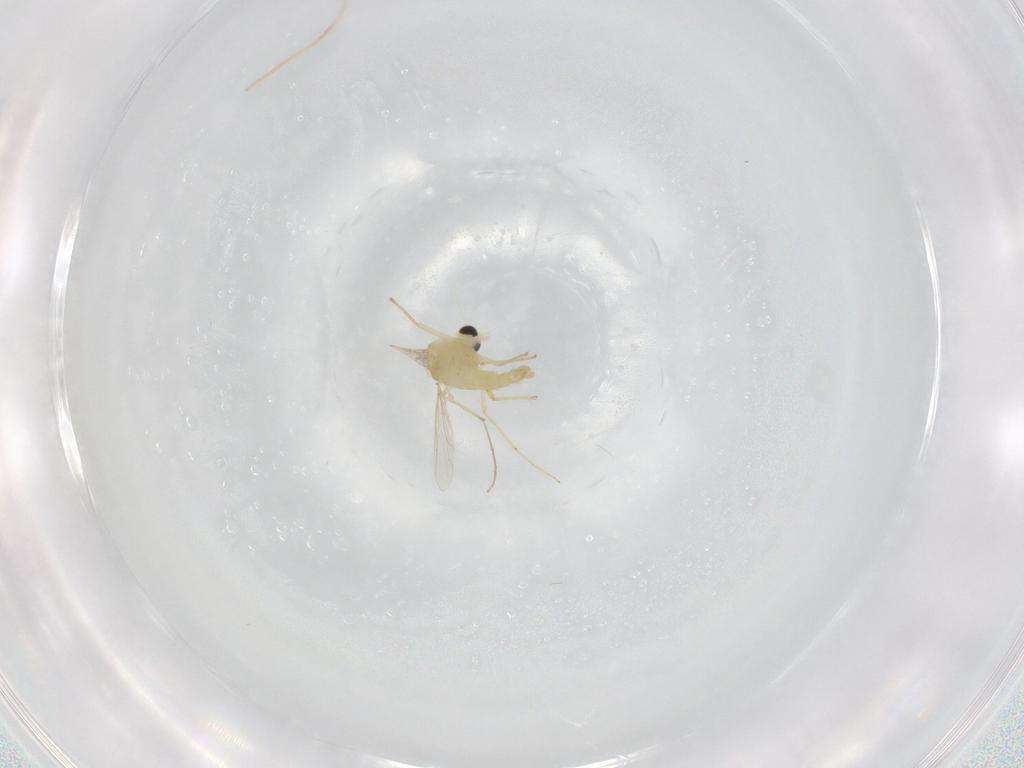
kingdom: Animalia
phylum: Arthropoda
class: Insecta
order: Diptera
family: Chironomidae
